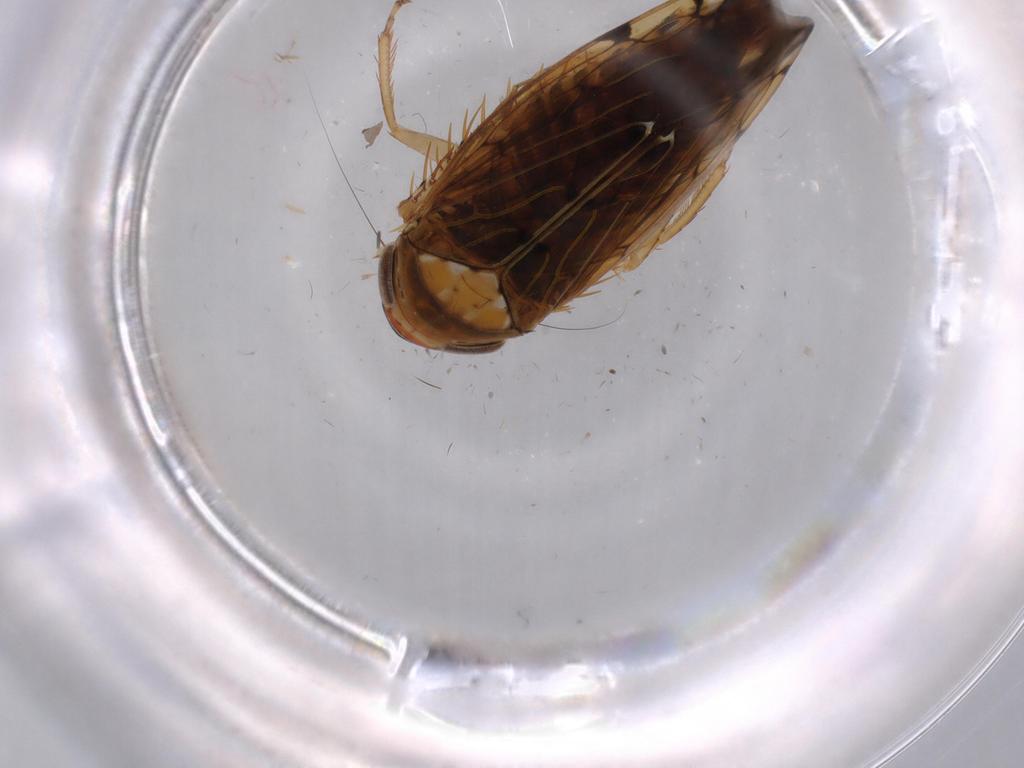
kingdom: Animalia
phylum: Arthropoda
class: Insecta
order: Hemiptera
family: Cicadellidae
